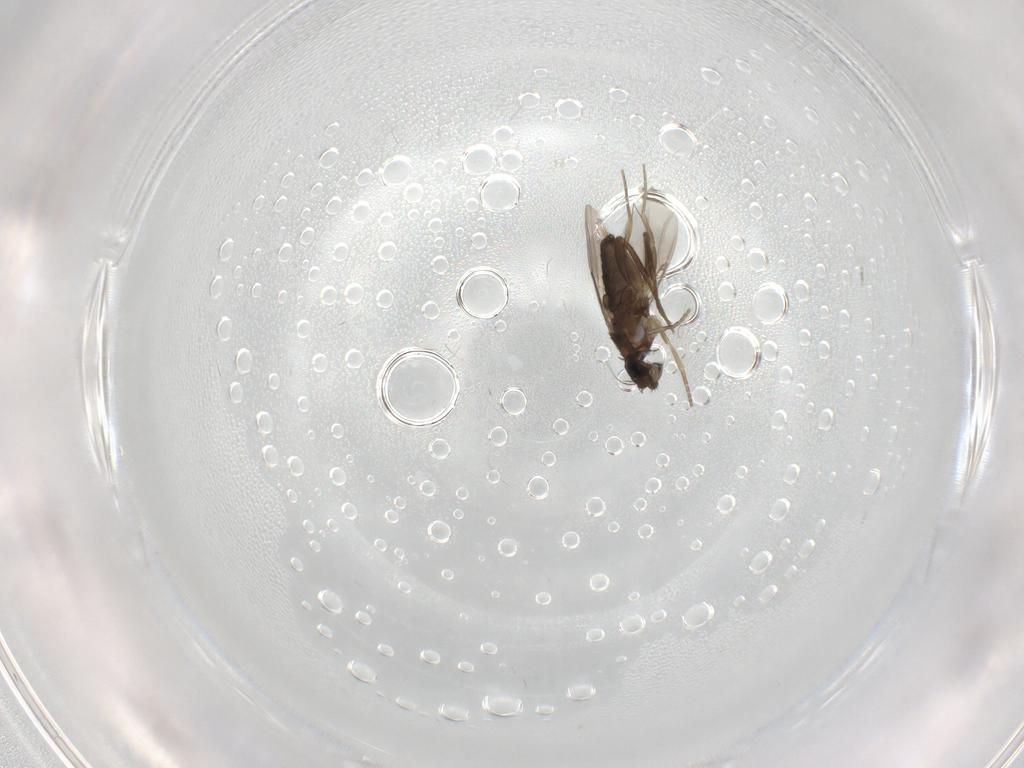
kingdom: Animalia
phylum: Arthropoda
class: Insecta
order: Diptera
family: Phoridae
